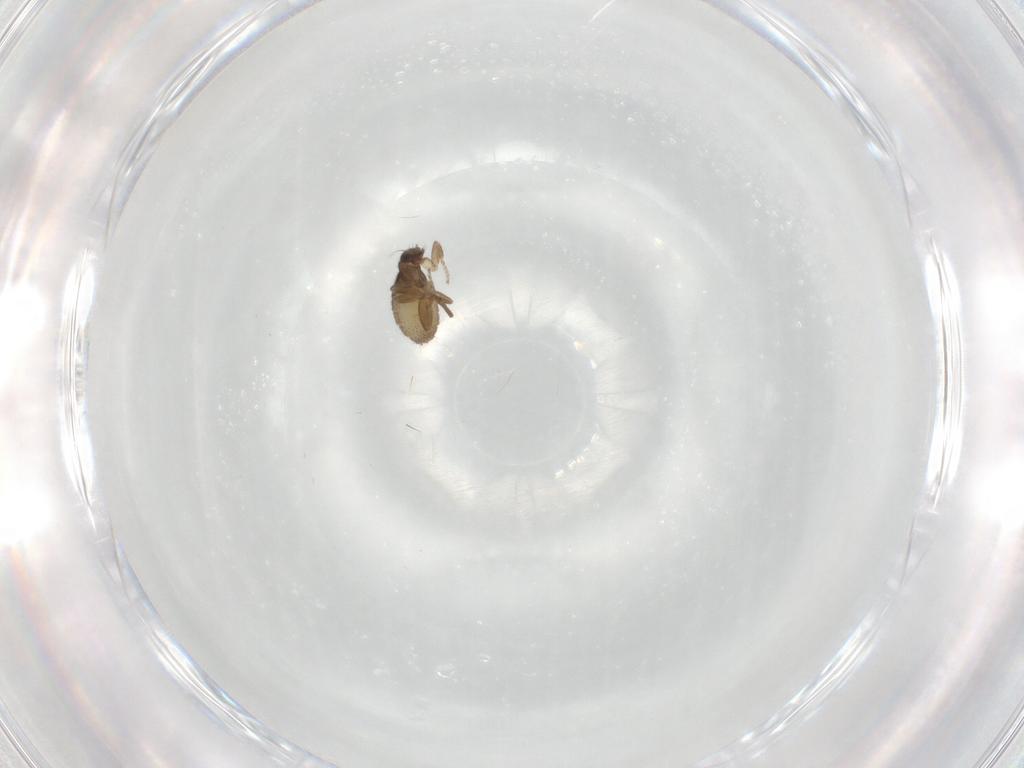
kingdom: Animalia
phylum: Arthropoda
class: Insecta
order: Diptera
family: Phoridae
